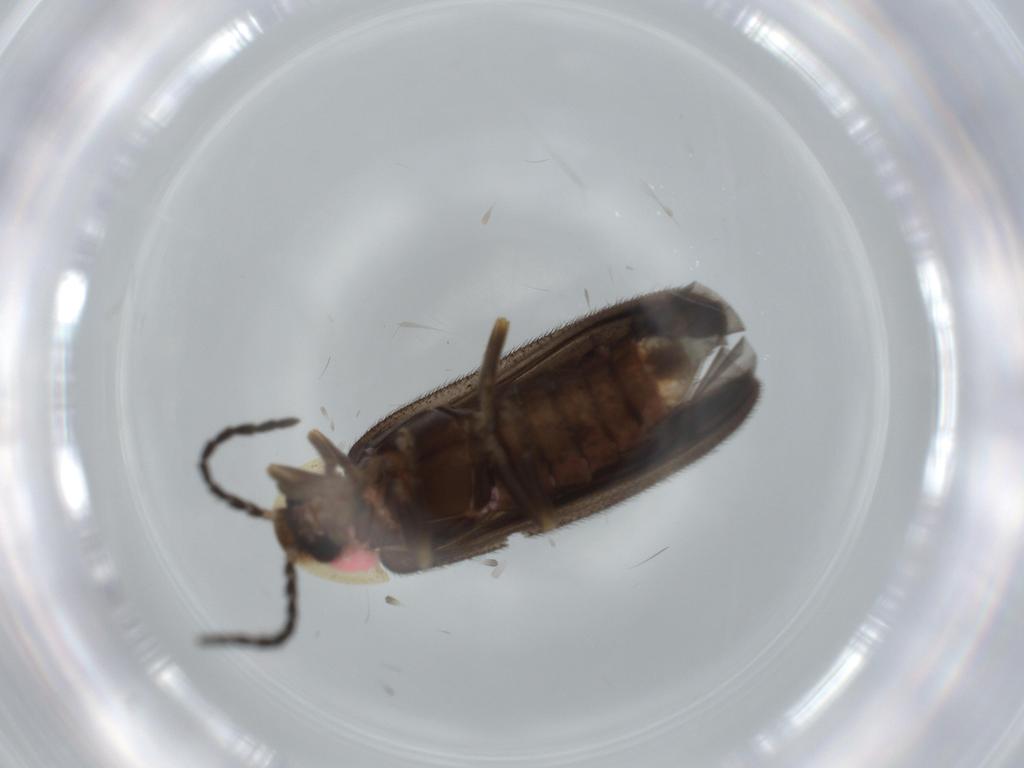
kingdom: Animalia
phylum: Arthropoda
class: Insecta
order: Coleoptera
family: Lampyridae
